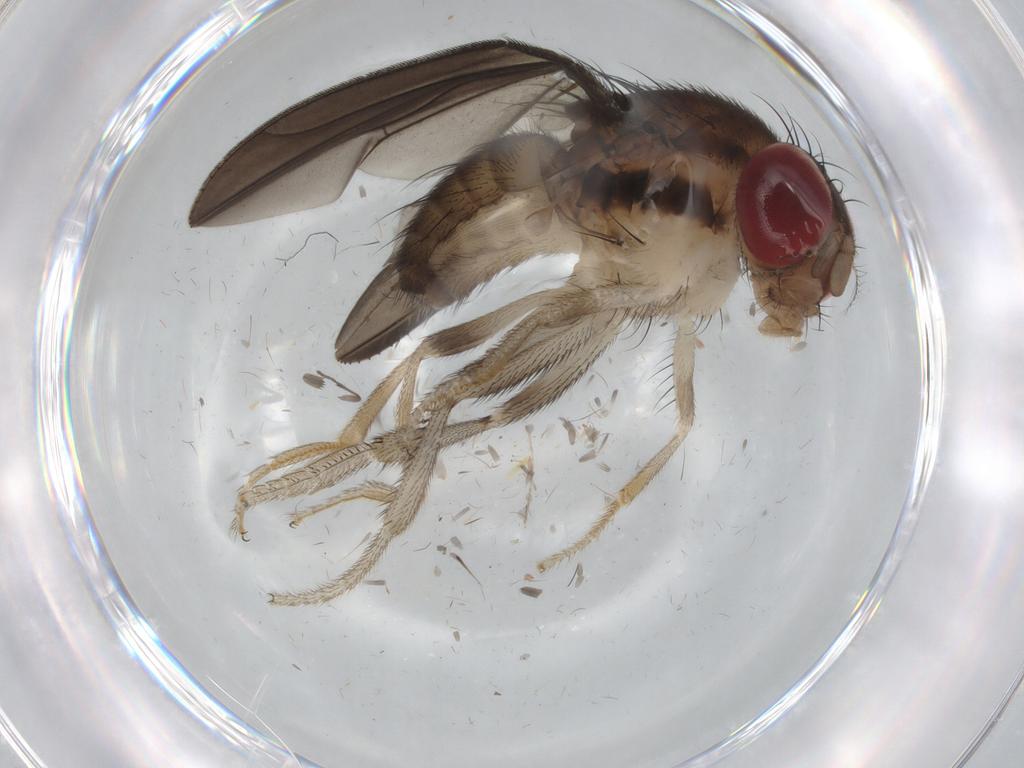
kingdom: Animalia
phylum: Arthropoda
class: Insecta
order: Diptera
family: Drosophilidae
